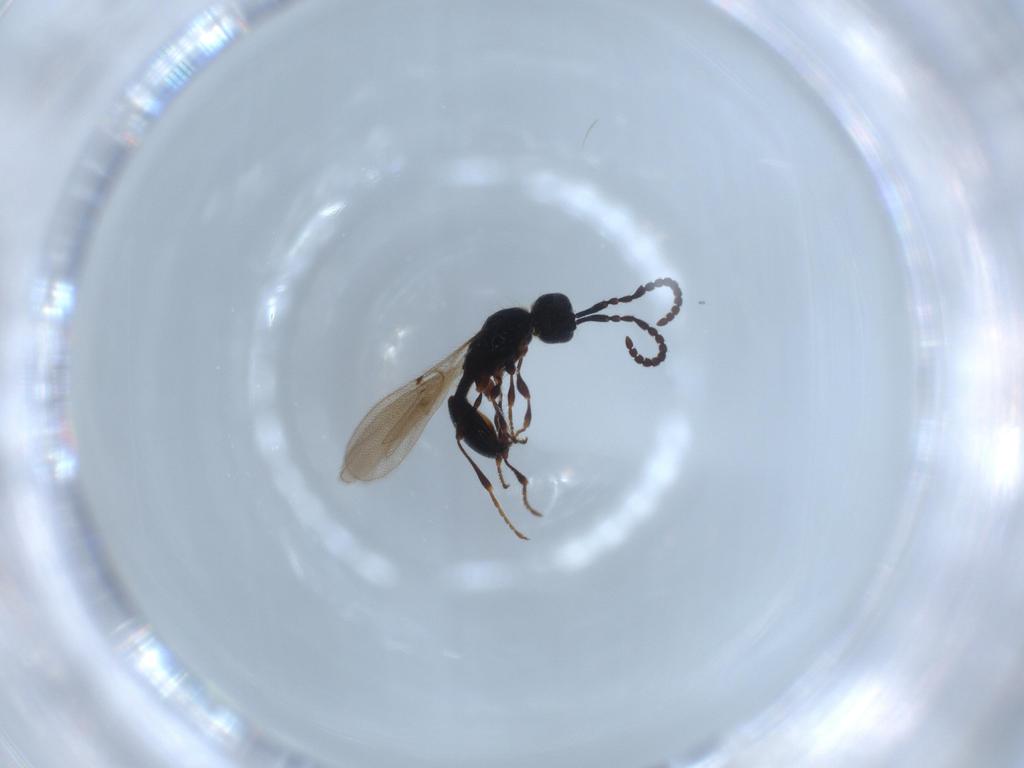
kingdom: Animalia
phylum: Arthropoda
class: Insecta
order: Hymenoptera
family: Diapriidae
